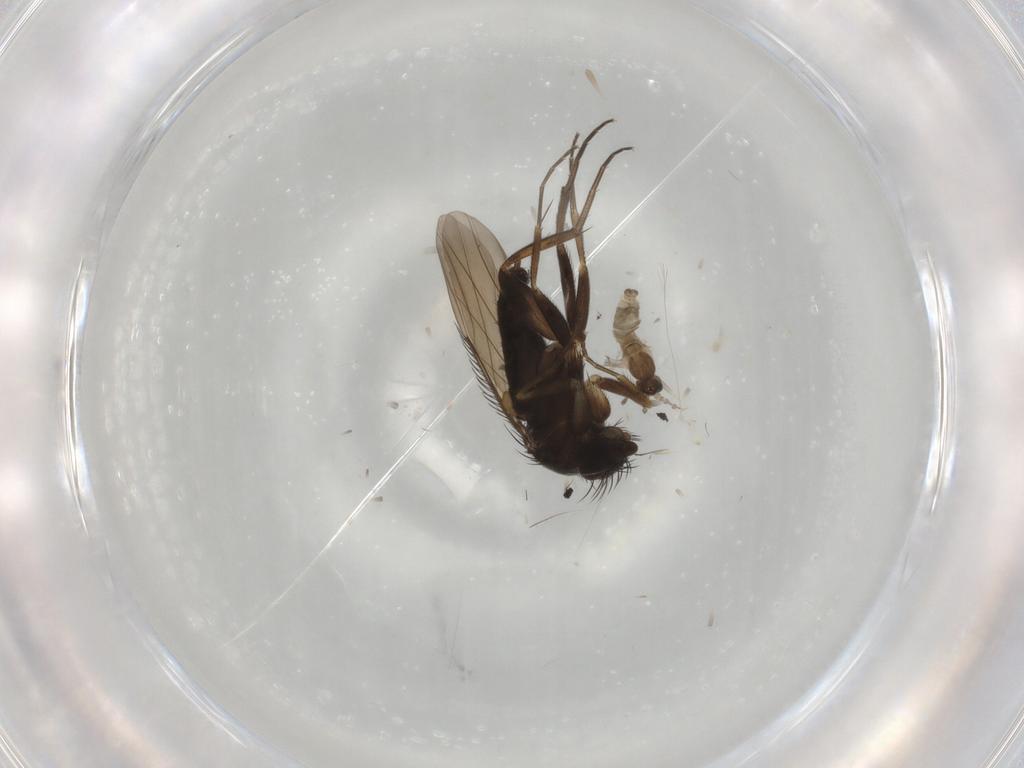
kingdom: Animalia
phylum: Arthropoda
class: Insecta
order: Diptera
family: Phoridae
